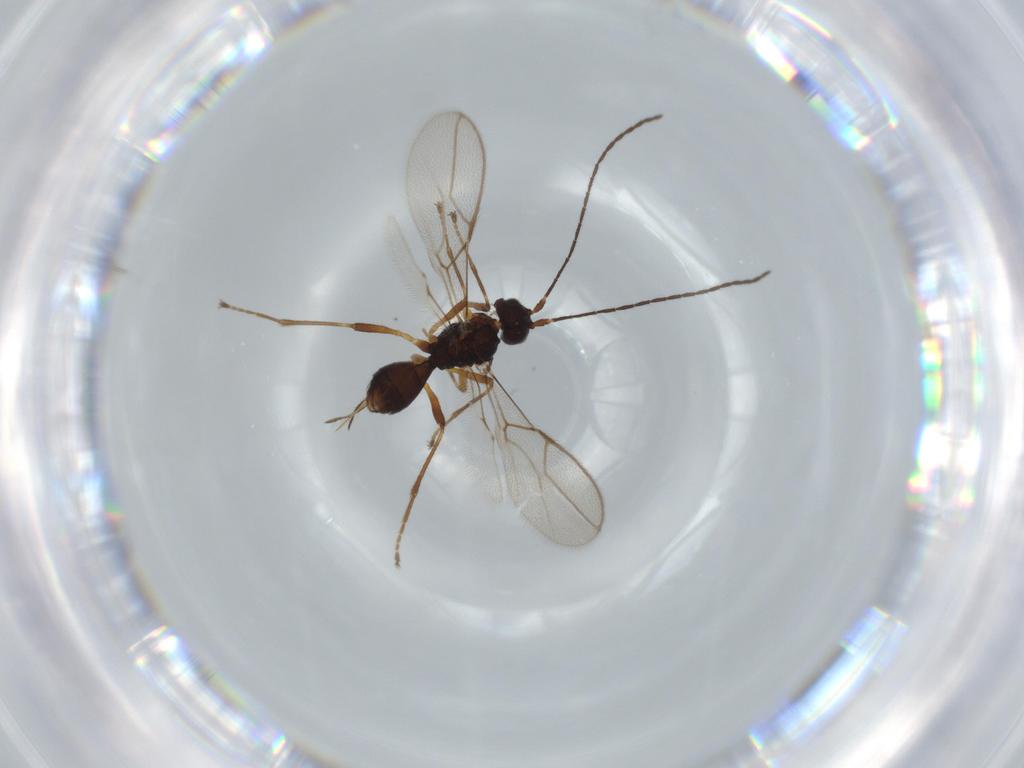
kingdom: Animalia
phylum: Arthropoda
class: Insecta
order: Hymenoptera
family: Braconidae
